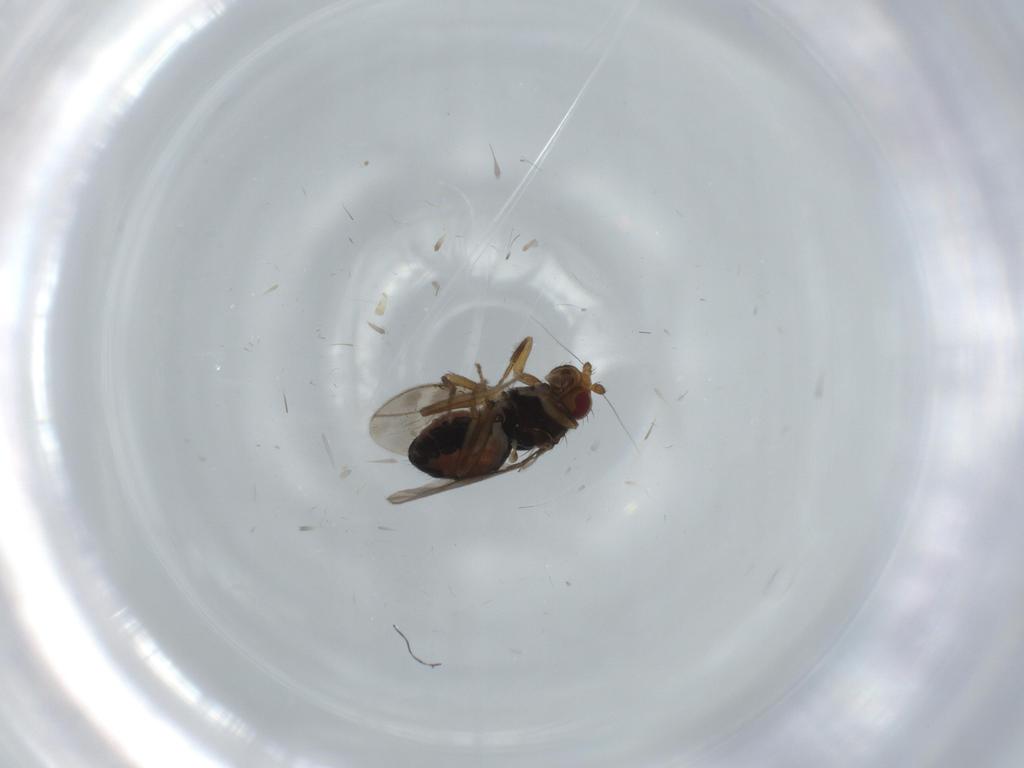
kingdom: Animalia
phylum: Arthropoda
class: Insecta
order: Diptera
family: Sphaeroceridae
